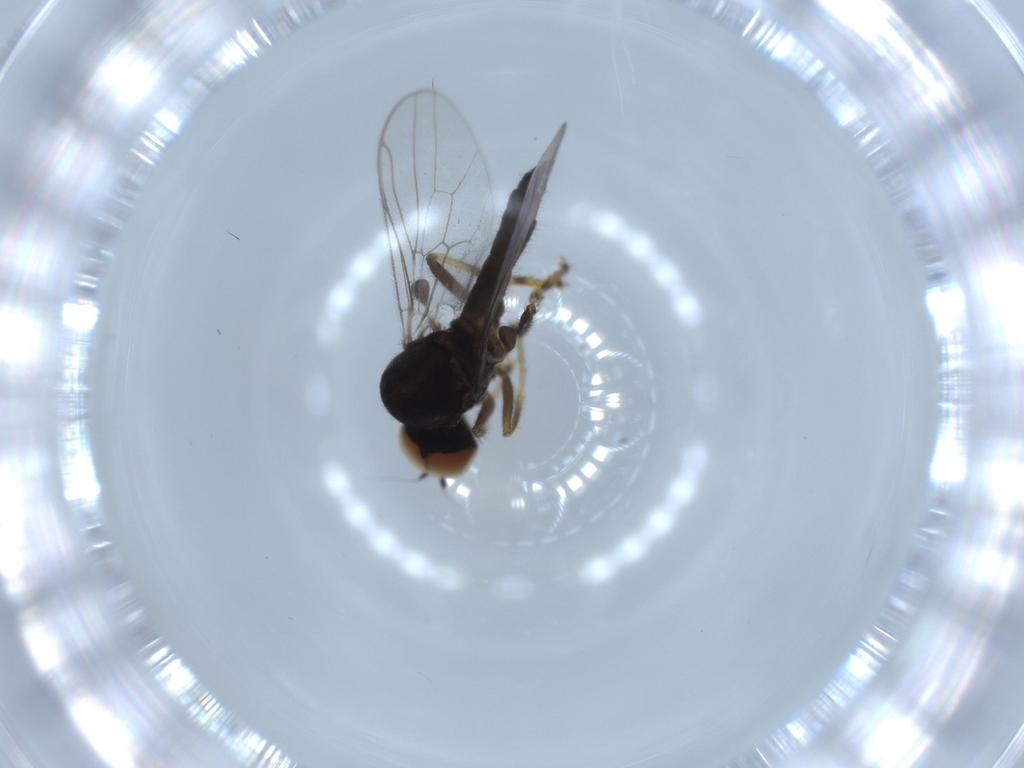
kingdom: Animalia
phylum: Arthropoda
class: Insecta
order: Diptera
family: Hybotidae
